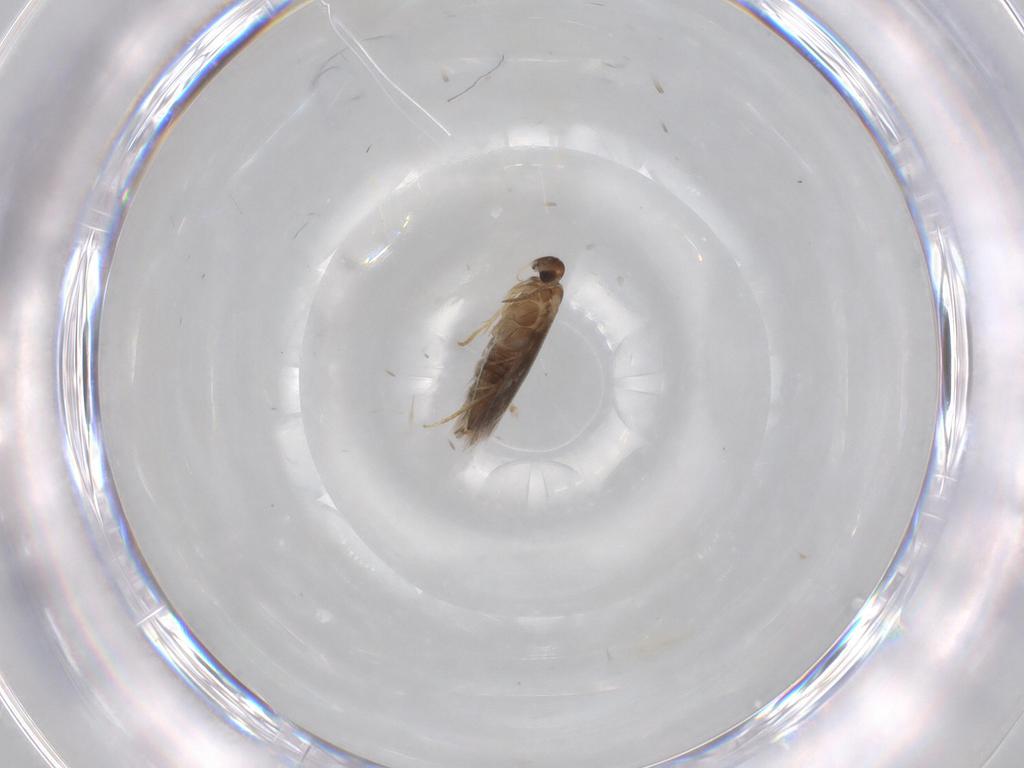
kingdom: Animalia
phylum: Arthropoda
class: Insecta
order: Lepidoptera
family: Heliozelidae
